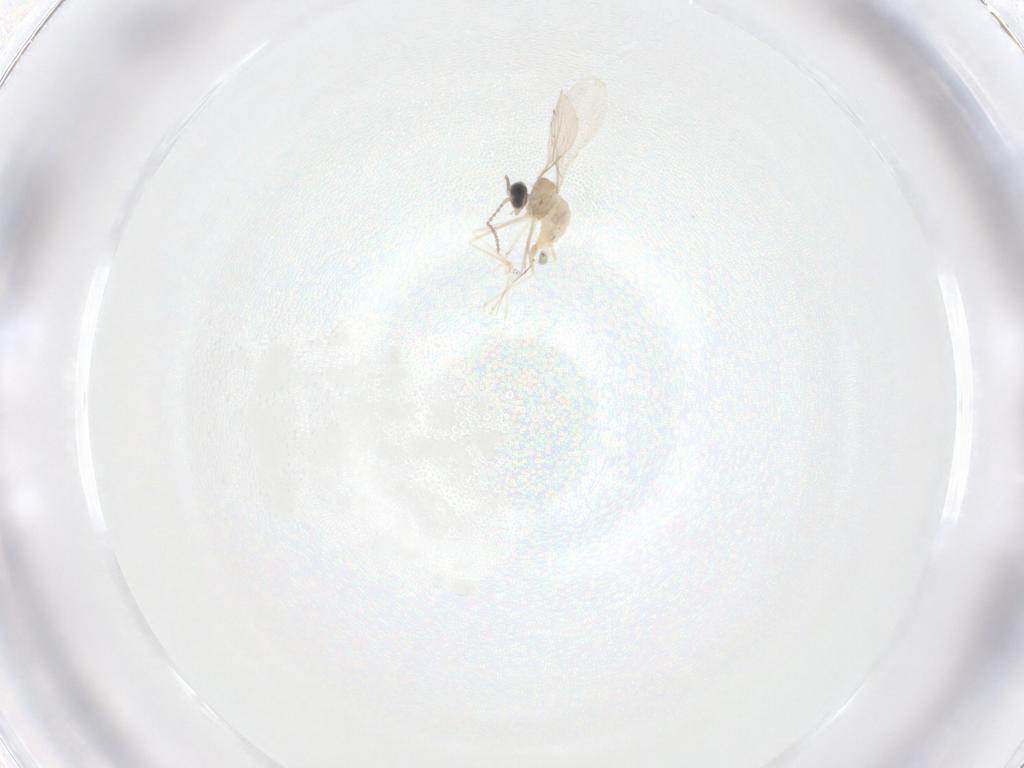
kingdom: Animalia
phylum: Arthropoda
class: Insecta
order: Diptera
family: Cecidomyiidae
